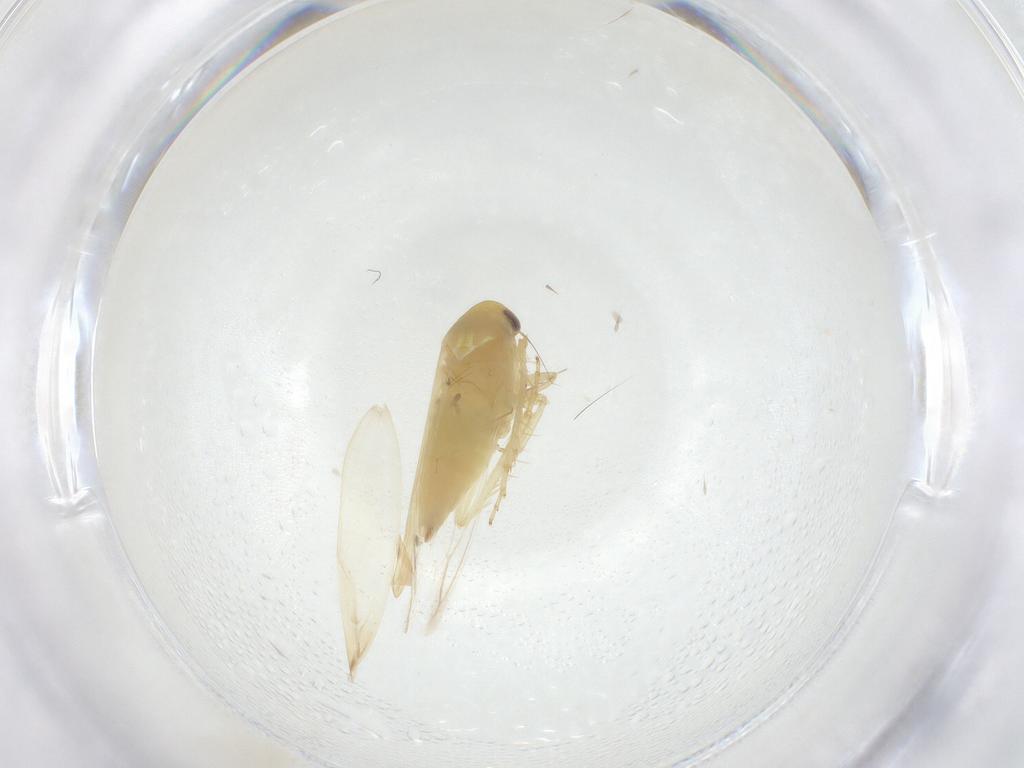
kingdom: Animalia
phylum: Arthropoda
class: Insecta
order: Hemiptera
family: Cicadellidae
